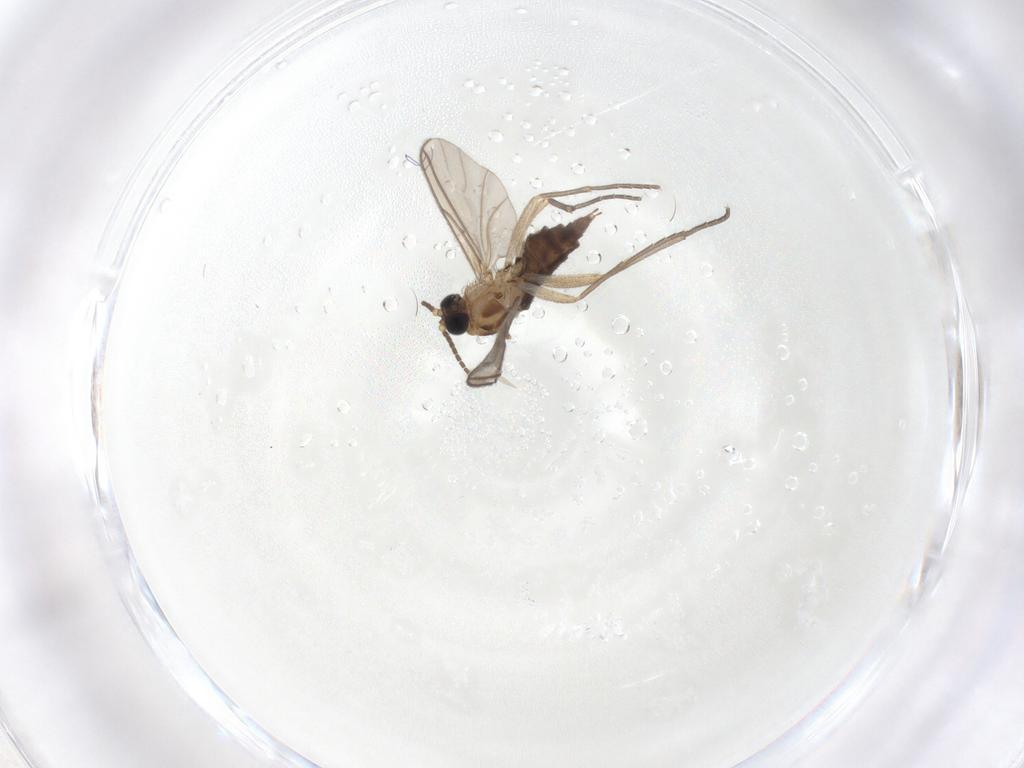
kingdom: Animalia
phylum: Arthropoda
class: Insecta
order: Diptera
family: Sciaridae
